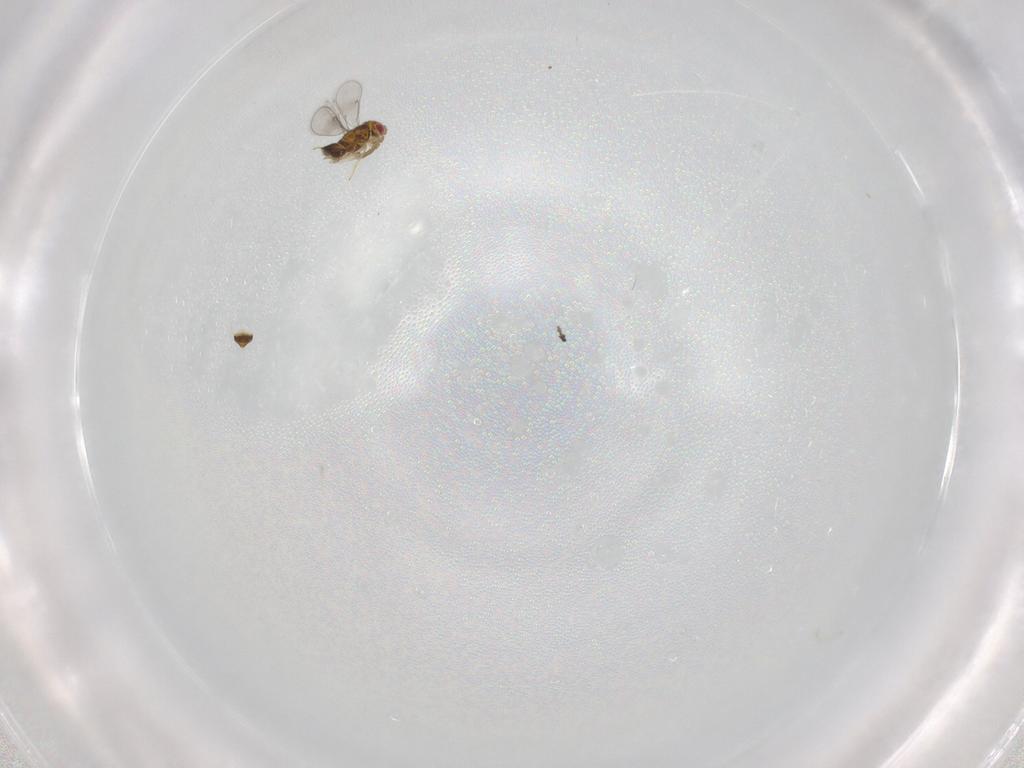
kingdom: Animalia
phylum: Arthropoda
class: Insecta
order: Hymenoptera
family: Braconidae
